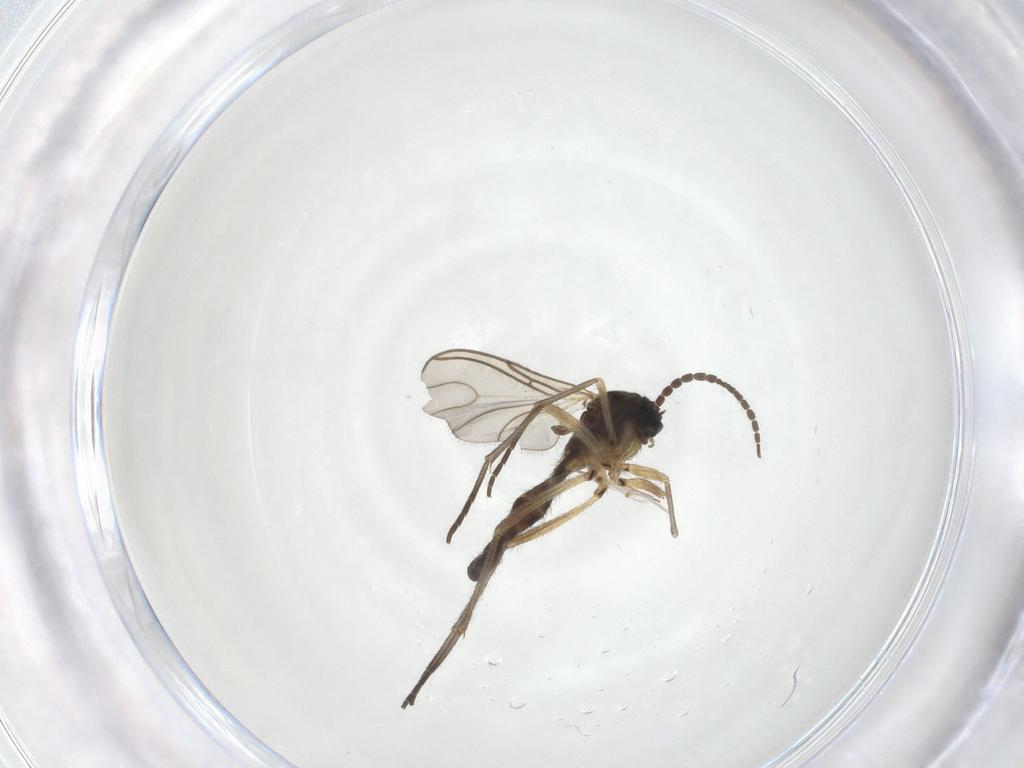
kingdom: Animalia
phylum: Arthropoda
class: Insecta
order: Diptera
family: Sciaridae
